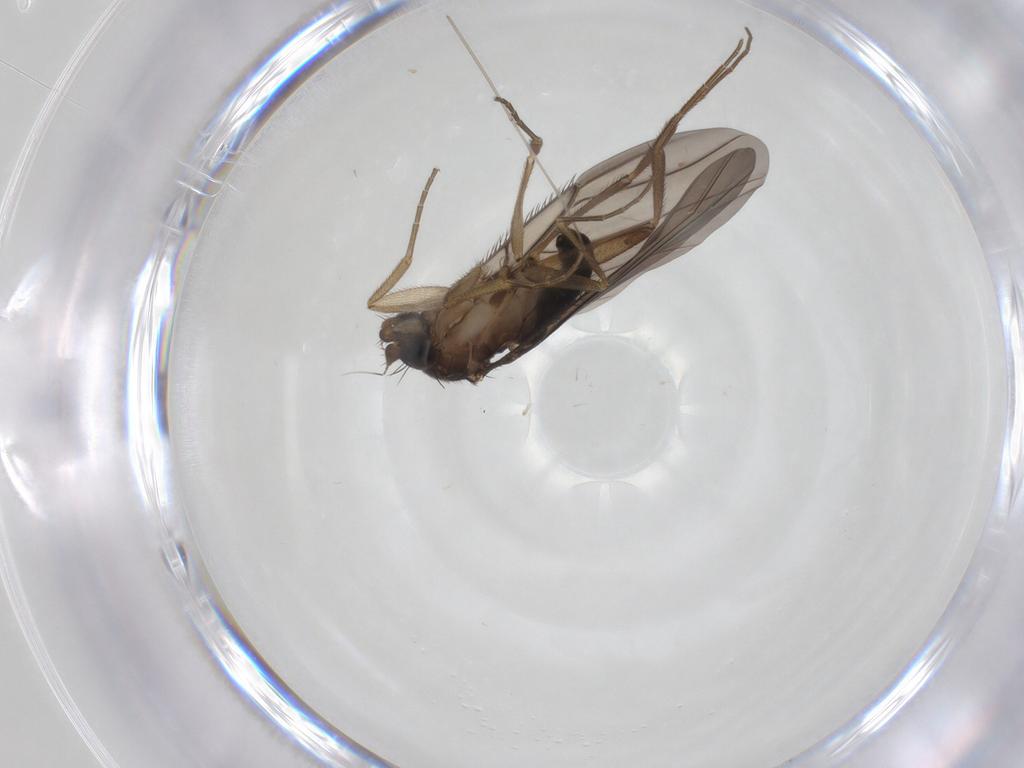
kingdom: Animalia
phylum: Arthropoda
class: Insecta
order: Diptera
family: Phoridae
